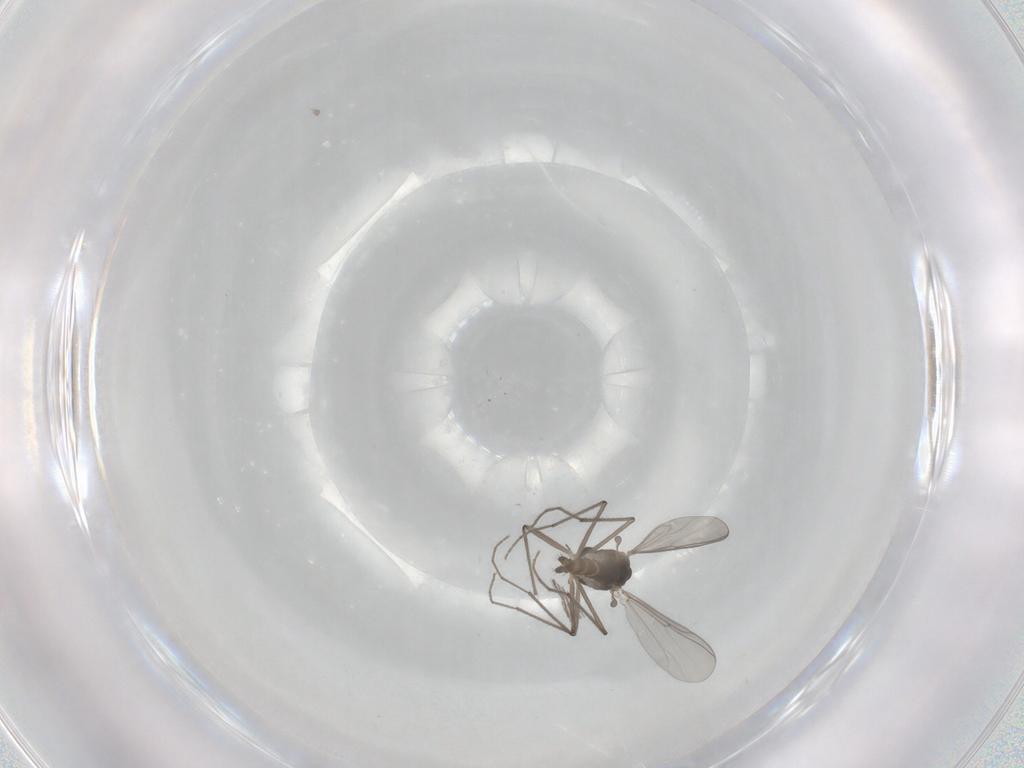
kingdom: Animalia
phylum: Arthropoda
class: Insecta
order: Diptera
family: Chironomidae
